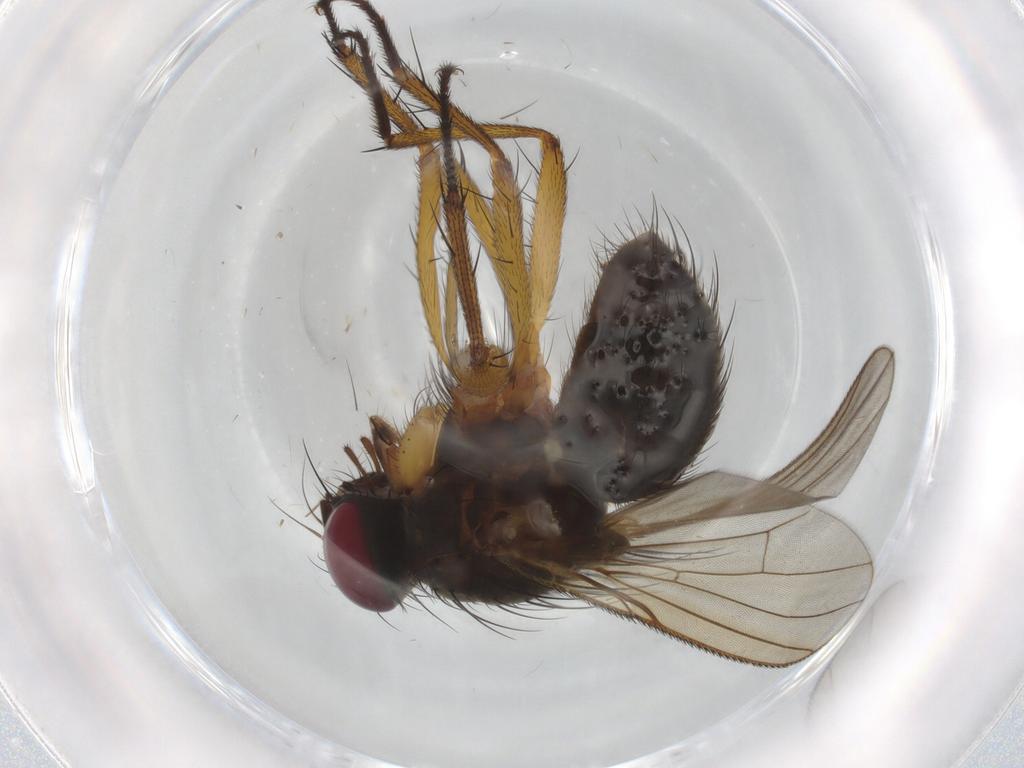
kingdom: Animalia
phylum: Arthropoda
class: Insecta
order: Diptera
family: Muscidae
